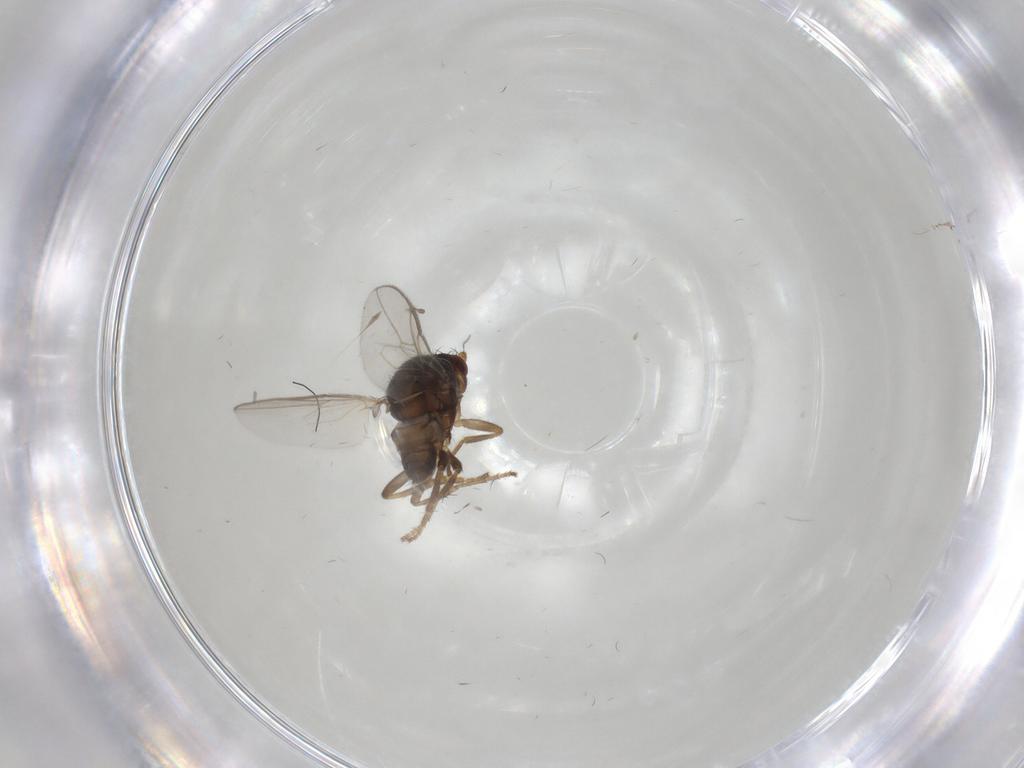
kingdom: Animalia
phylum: Arthropoda
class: Insecta
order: Diptera
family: Sphaeroceridae
